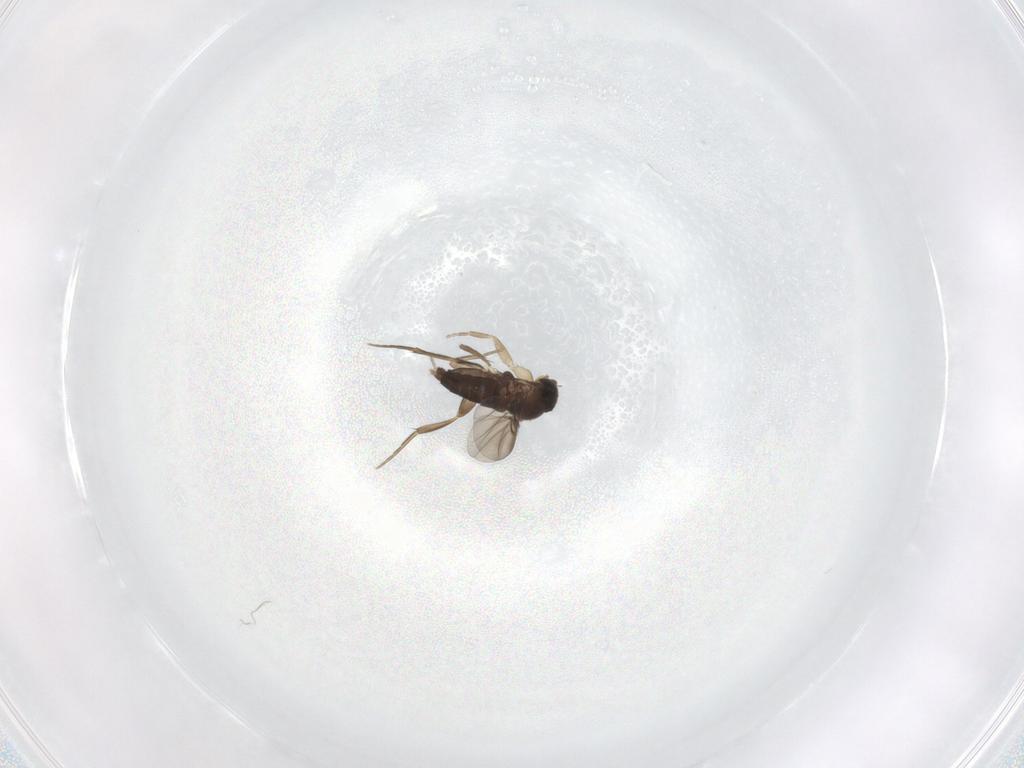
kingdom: Animalia
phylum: Arthropoda
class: Insecta
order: Diptera
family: Phoridae
